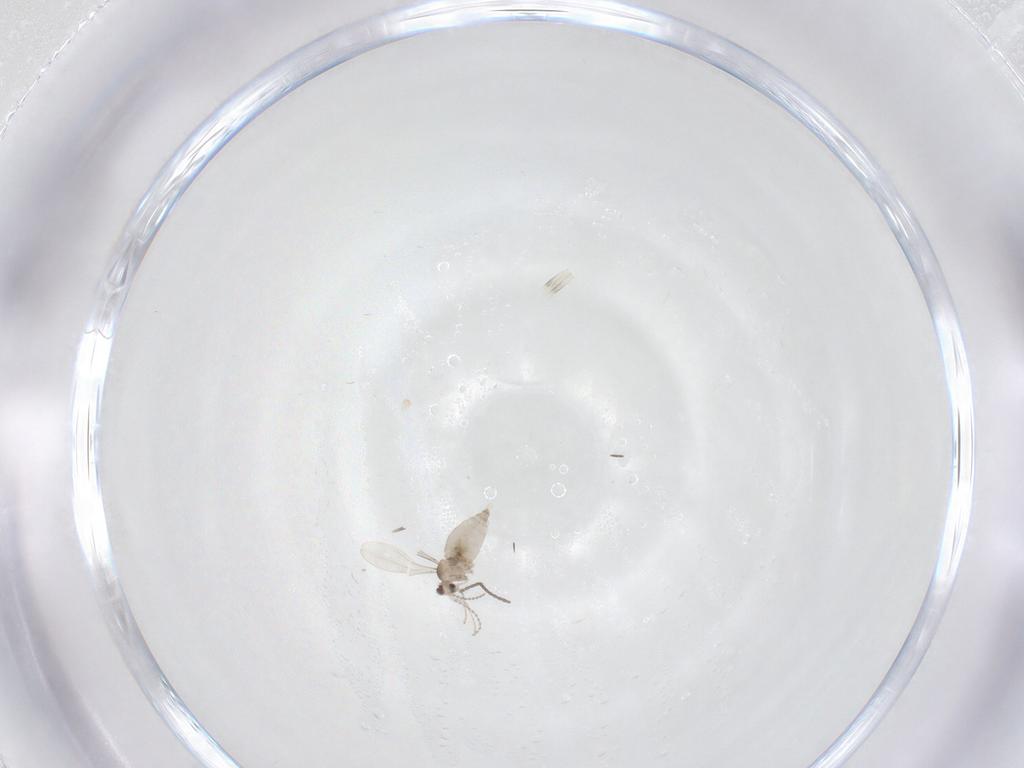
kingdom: Animalia
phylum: Arthropoda
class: Insecta
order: Diptera
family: Cecidomyiidae
